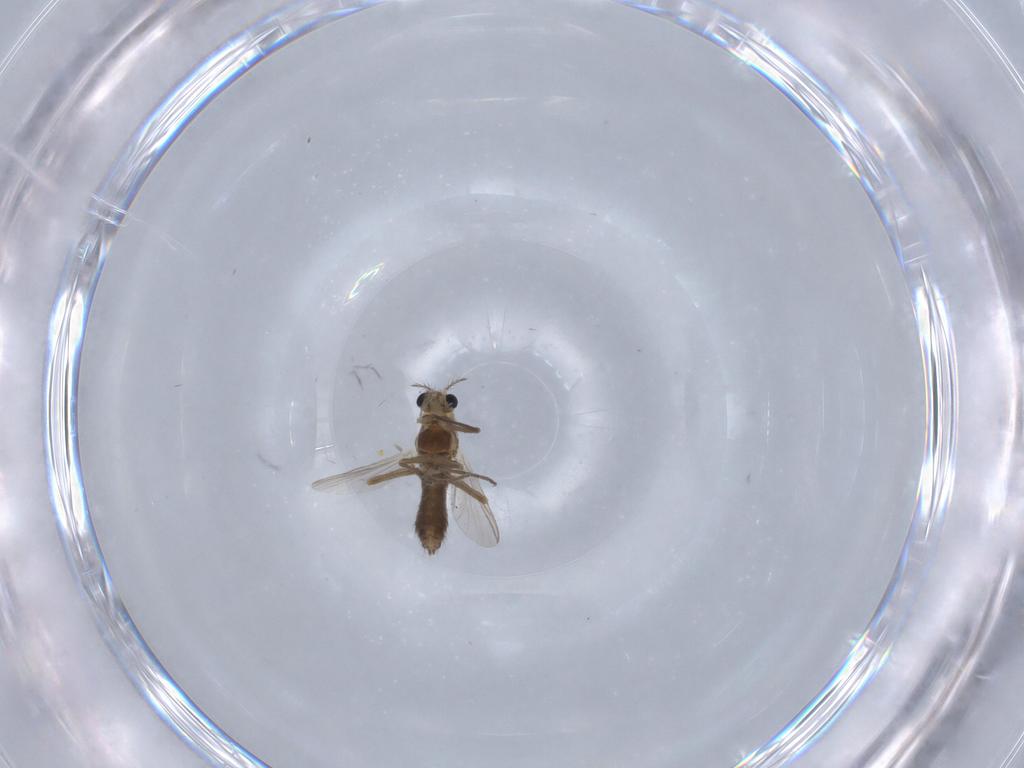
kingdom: Animalia
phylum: Arthropoda
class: Insecta
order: Diptera
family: Chironomidae
